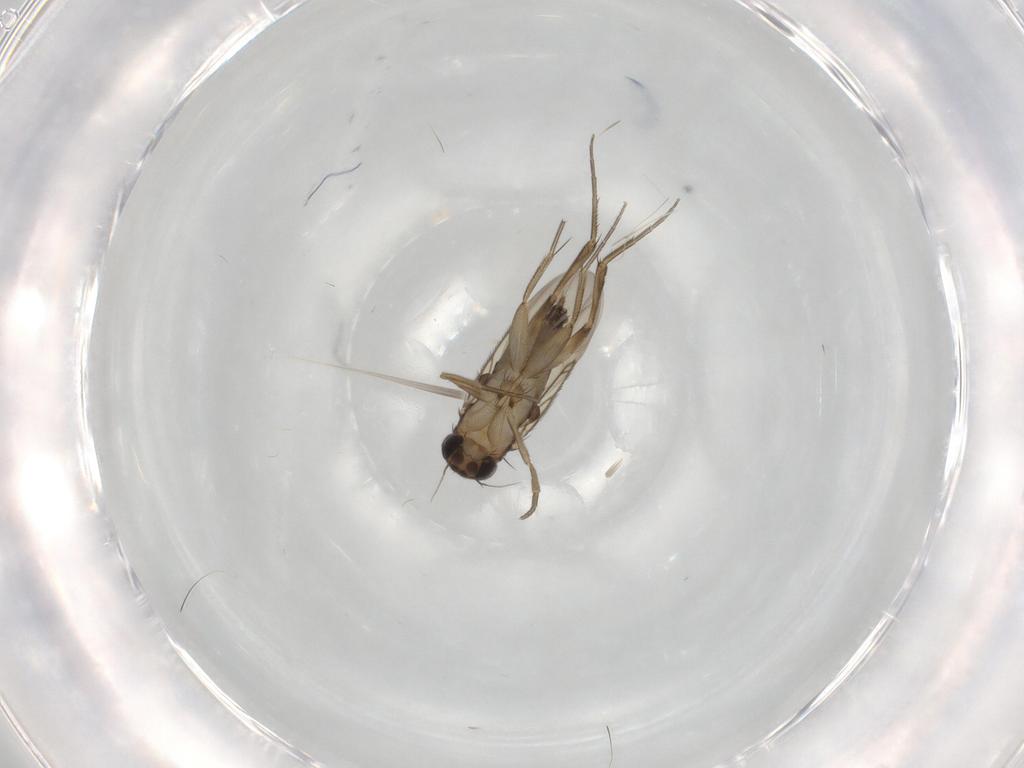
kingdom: Animalia
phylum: Arthropoda
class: Insecta
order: Diptera
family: Phoridae
